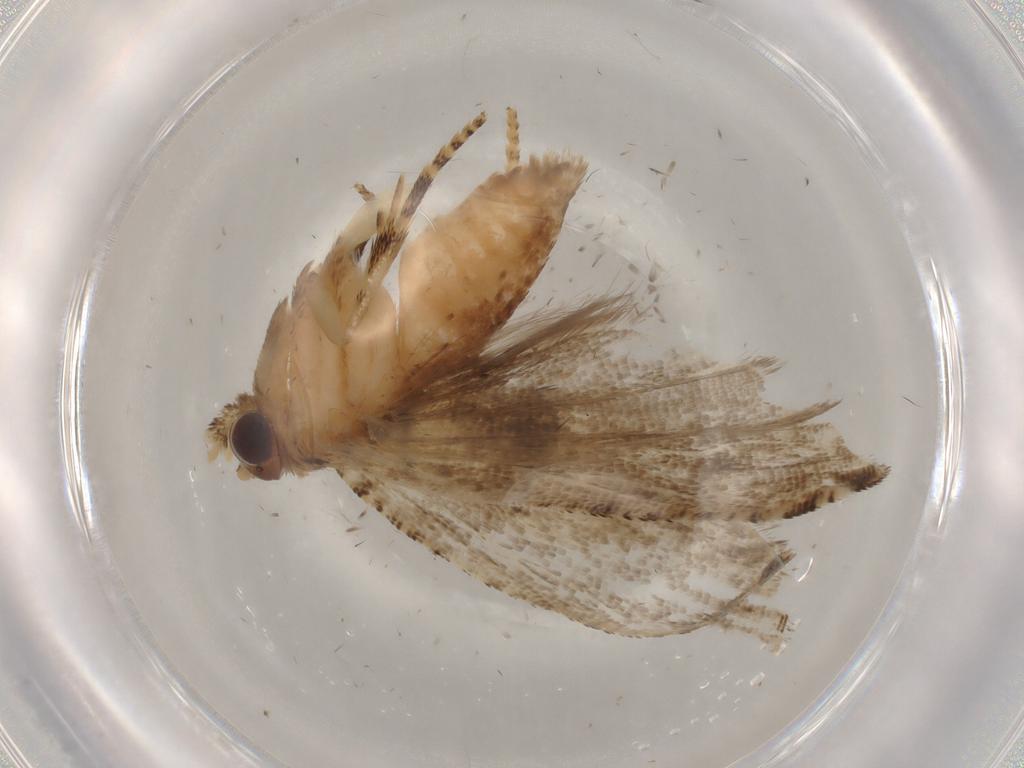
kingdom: Animalia
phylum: Arthropoda
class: Insecta
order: Lepidoptera
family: Tortricidae
